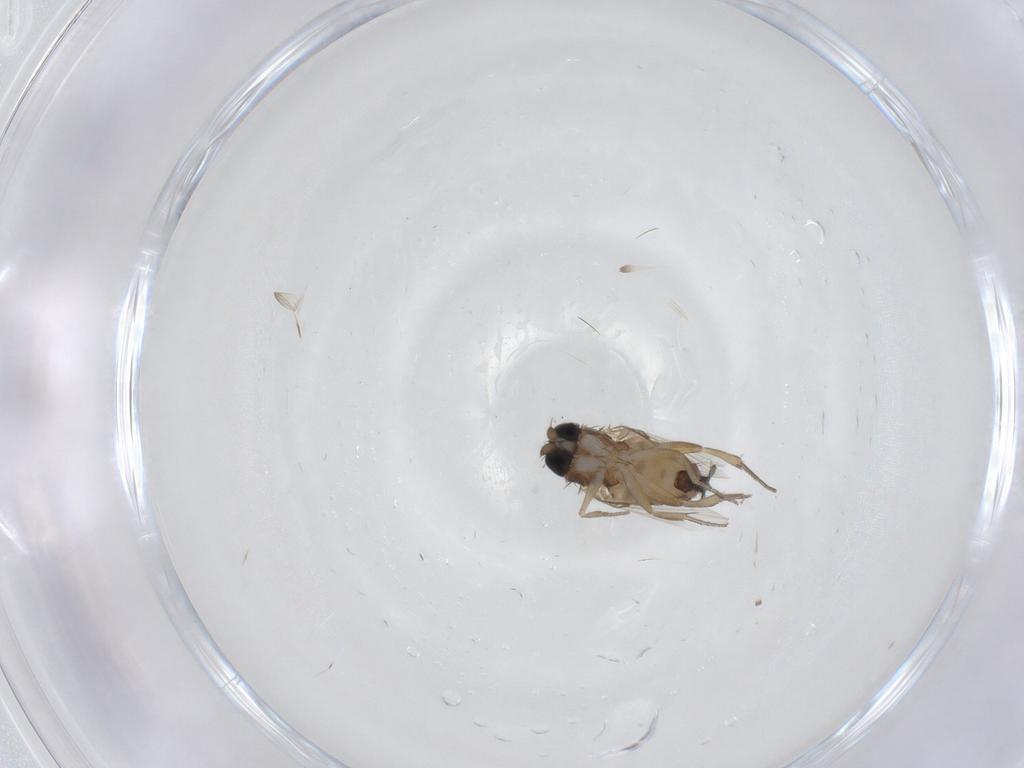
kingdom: Animalia
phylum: Arthropoda
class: Insecta
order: Diptera
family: Phoridae
